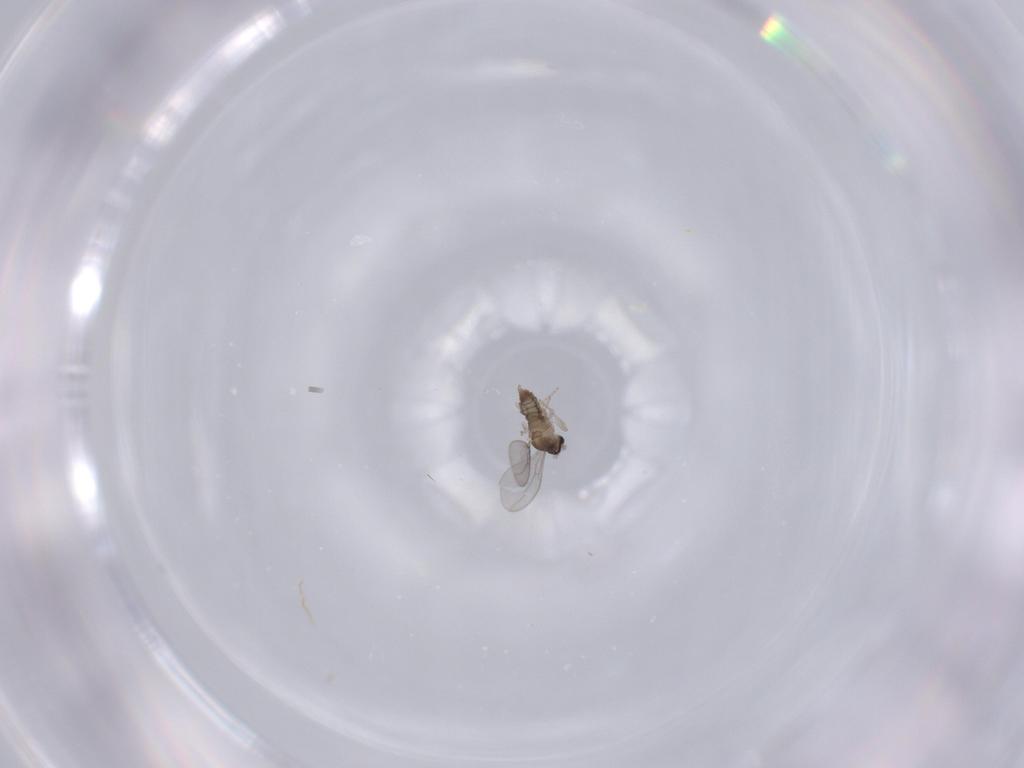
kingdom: Animalia
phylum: Arthropoda
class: Insecta
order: Diptera
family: Cecidomyiidae
